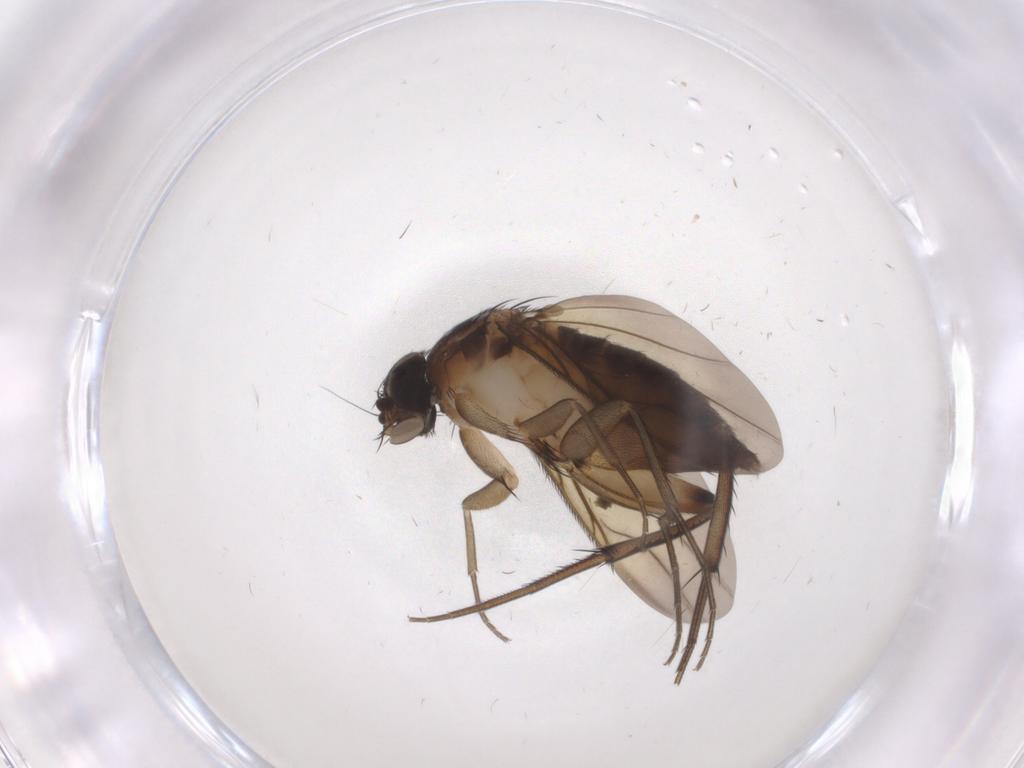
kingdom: Animalia
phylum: Arthropoda
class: Insecta
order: Diptera
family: Phoridae
